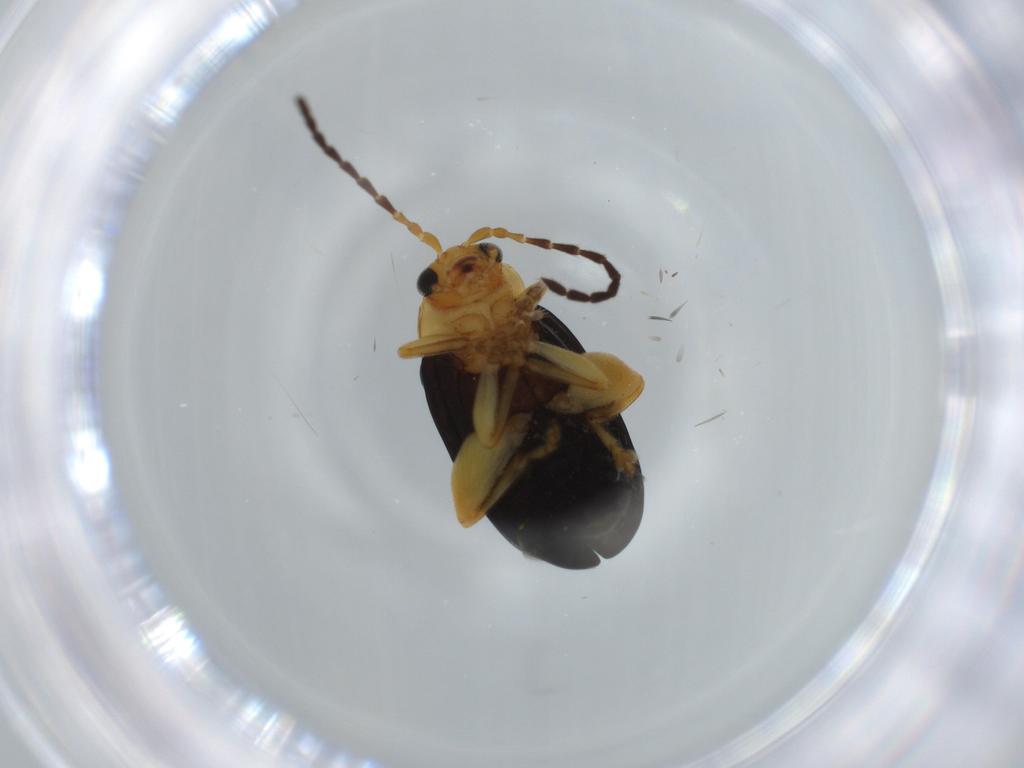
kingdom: Animalia
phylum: Arthropoda
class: Insecta
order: Coleoptera
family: Chrysomelidae
